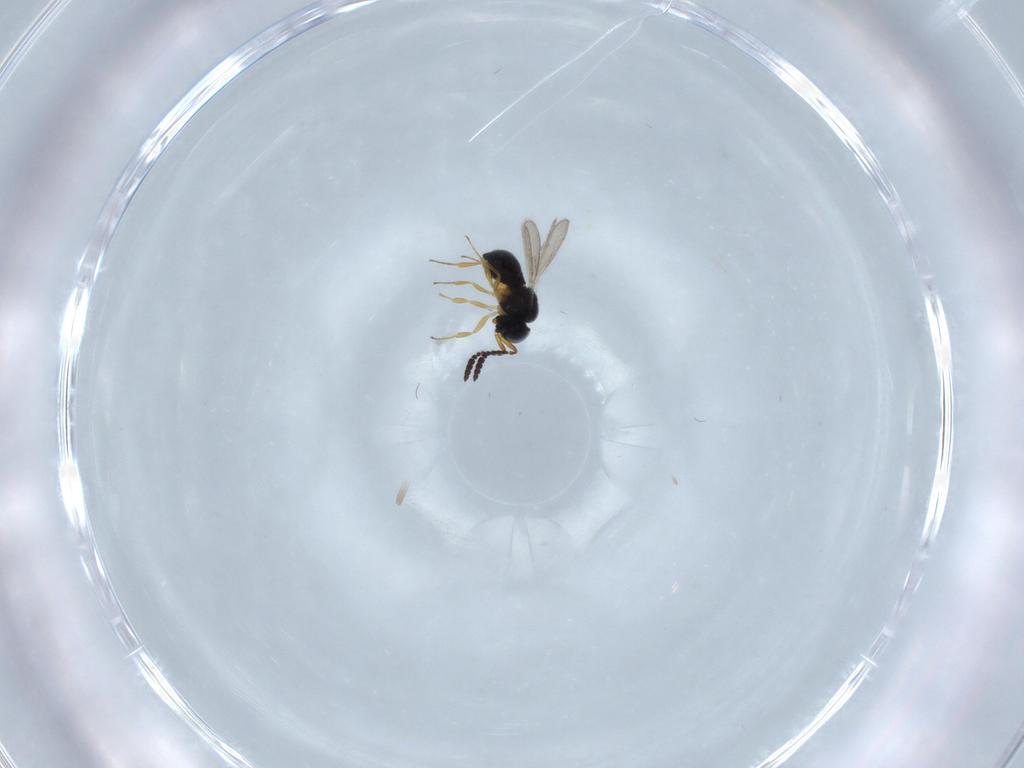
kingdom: Animalia
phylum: Arthropoda
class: Insecta
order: Hymenoptera
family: Scelionidae
